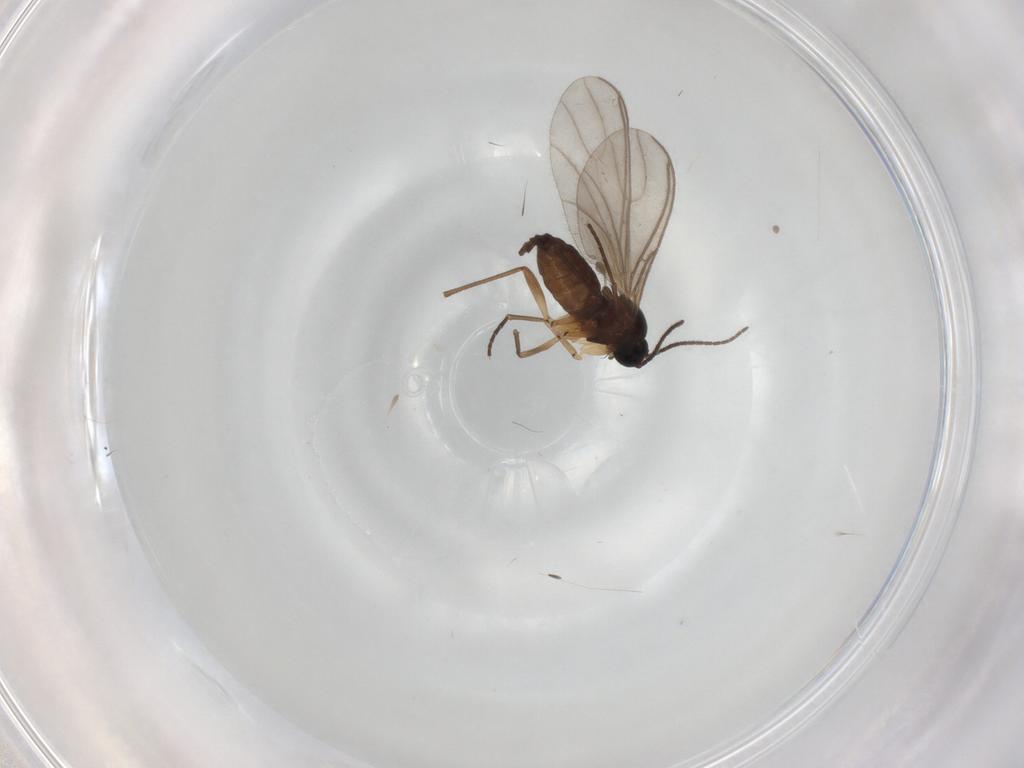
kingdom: Animalia
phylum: Arthropoda
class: Insecta
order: Diptera
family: Sciaridae
